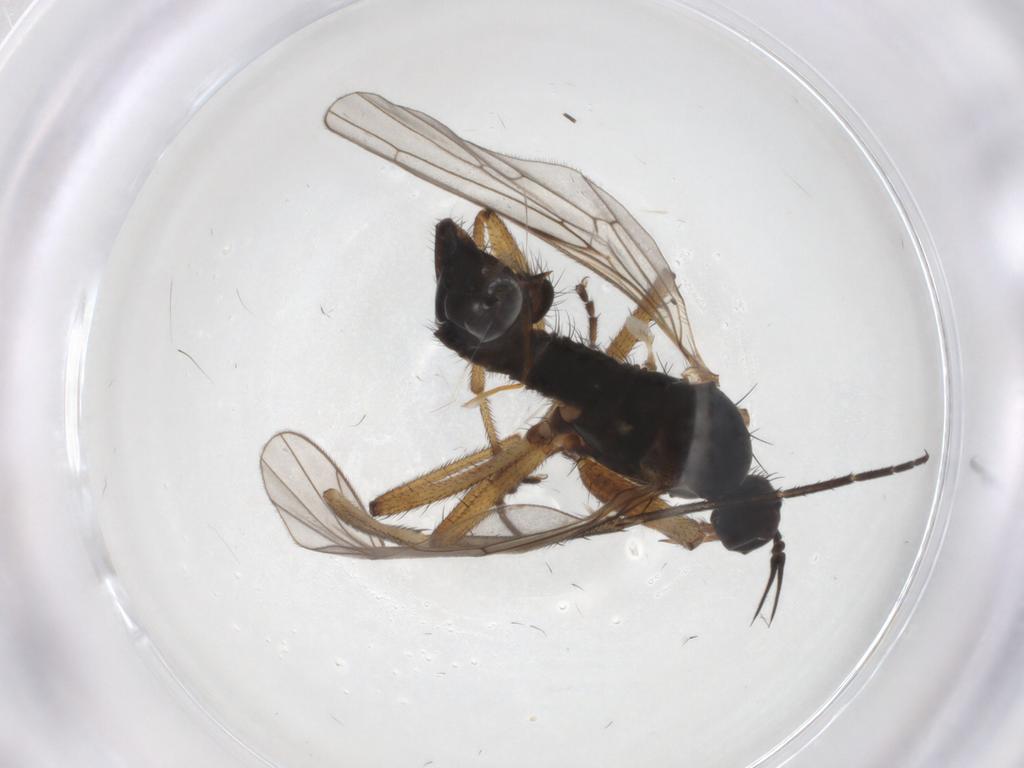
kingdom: Animalia
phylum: Arthropoda
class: Insecta
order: Diptera
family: Empididae
